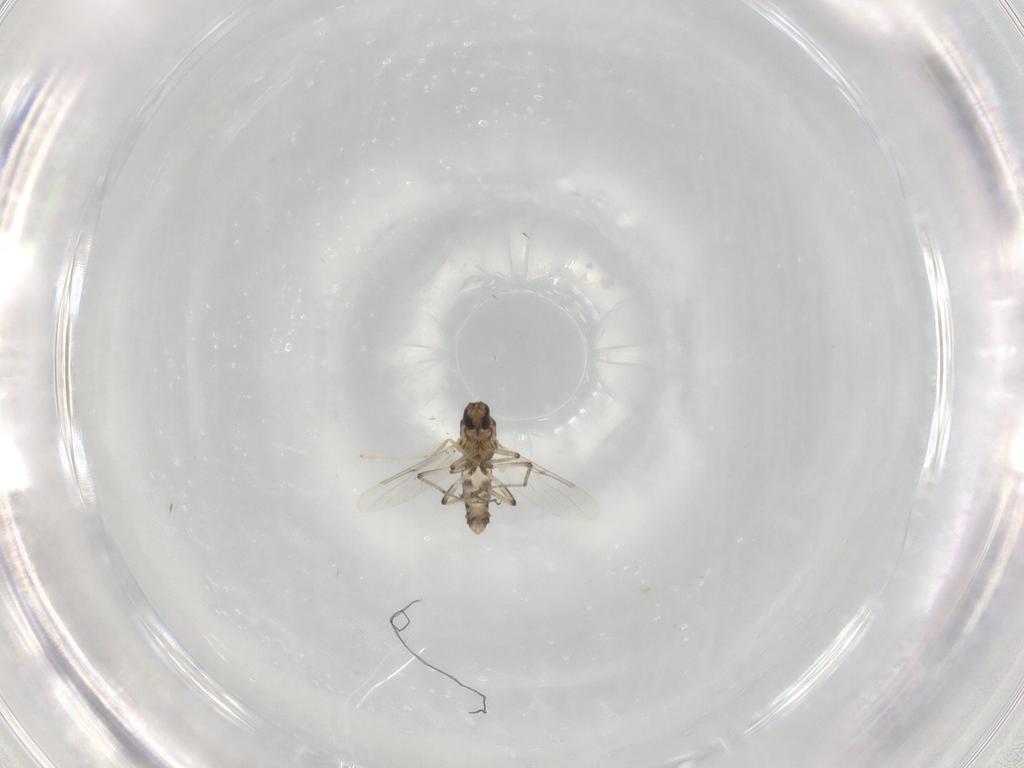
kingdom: Animalia
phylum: Arthropoda
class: Insecta
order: Diptera
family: Ceratopogonidae
